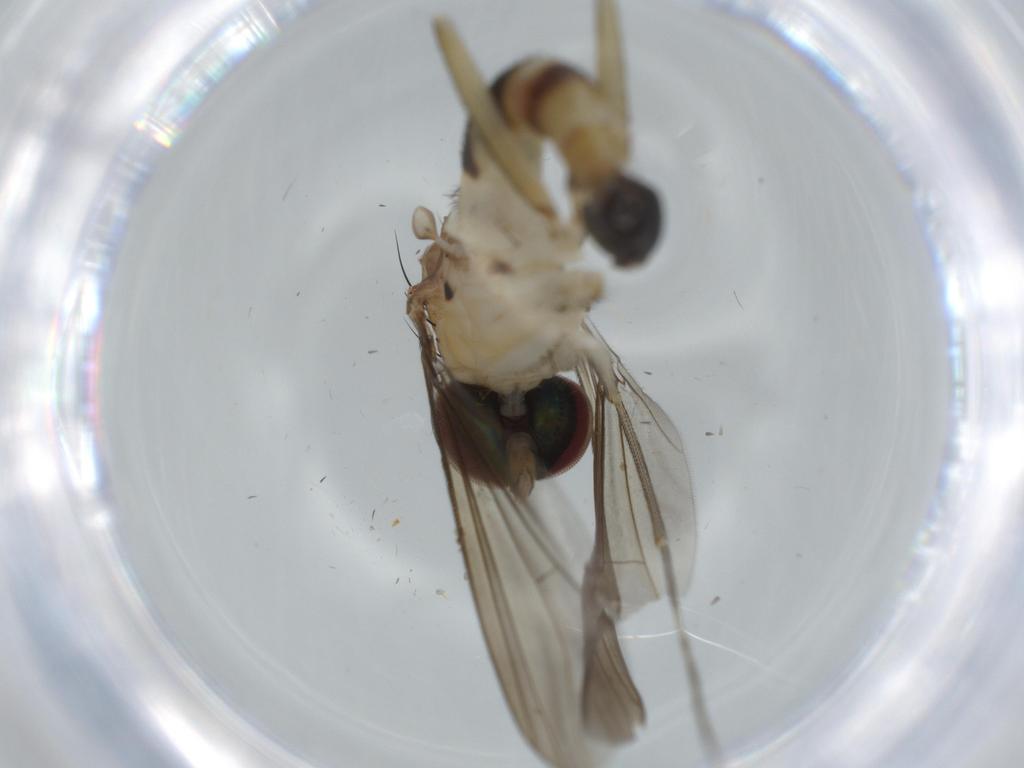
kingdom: Animalia
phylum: Arthropoda
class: Insecta
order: Diptera
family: Dolichopodidae
